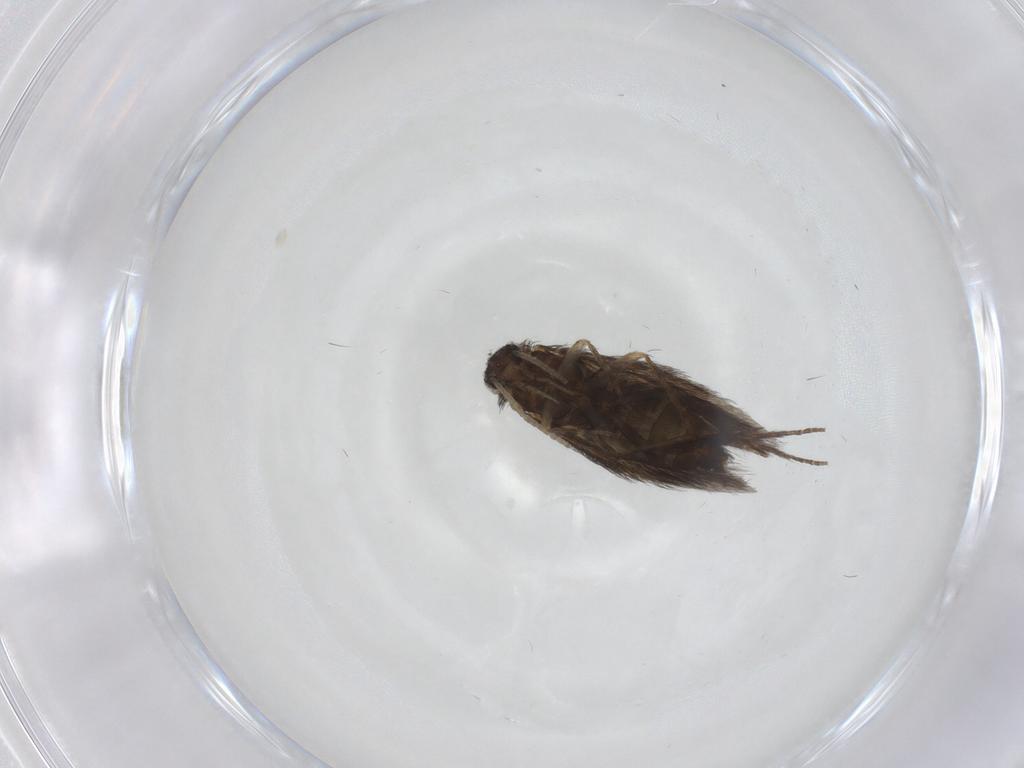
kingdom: Animalia
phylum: Arthropoda
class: Insecta
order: Trichoptera
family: Hydroptilidae
